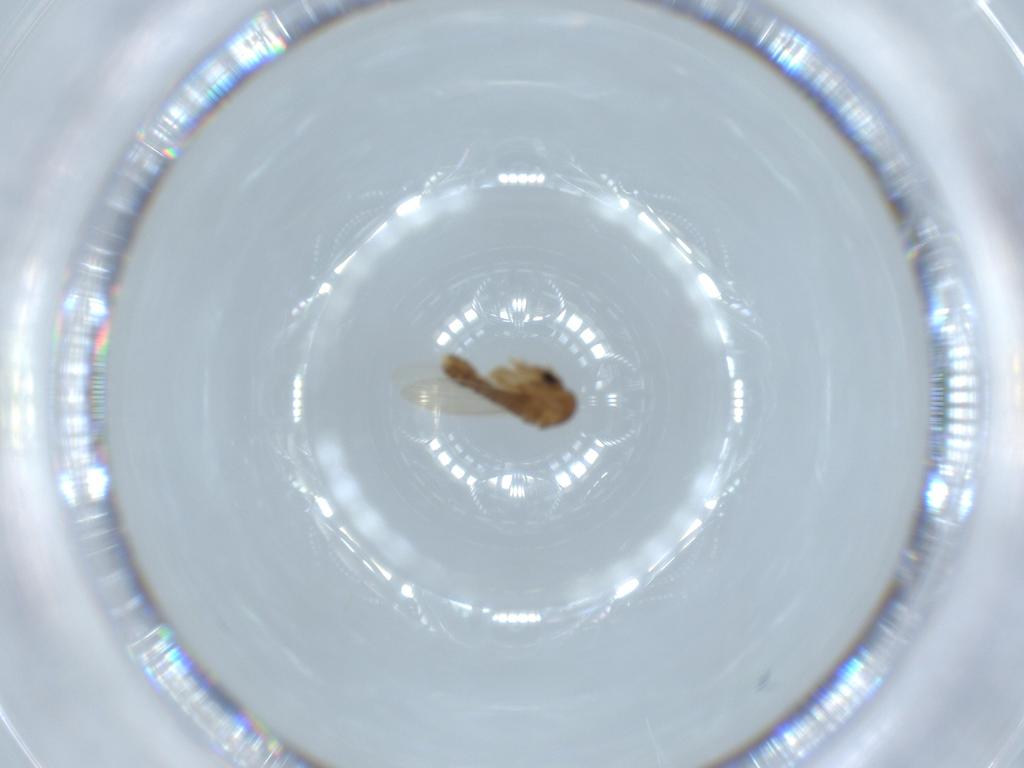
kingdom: Animalia
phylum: Arthropoda
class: Insecta
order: Diptera
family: Psychodidae
